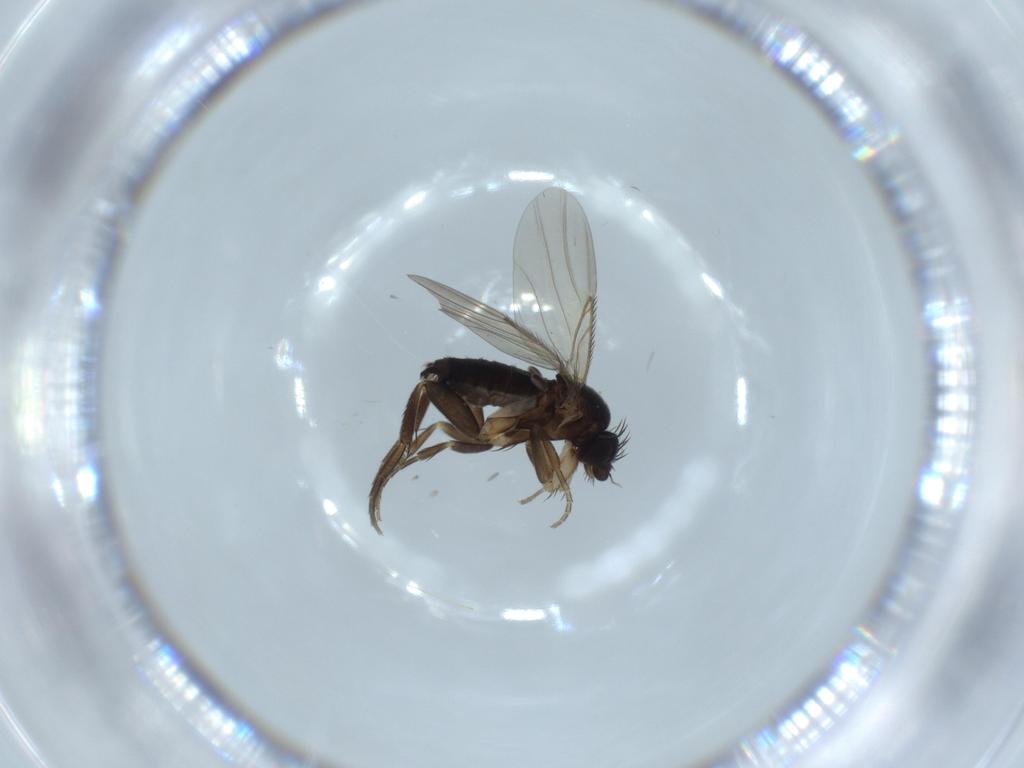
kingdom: Animalia
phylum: Arthropoda
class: Insecta
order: Diptera
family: Phoridae
